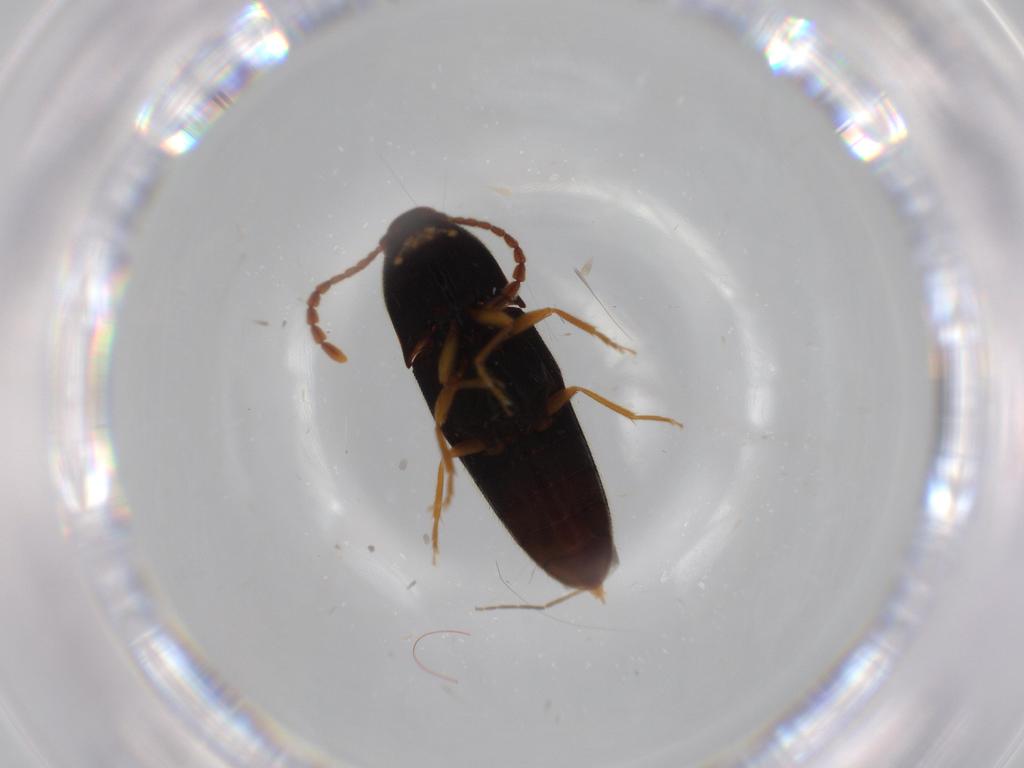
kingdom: Animalia
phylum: Arthropoda
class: Insecta
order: Coleoptera
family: Elateridae
